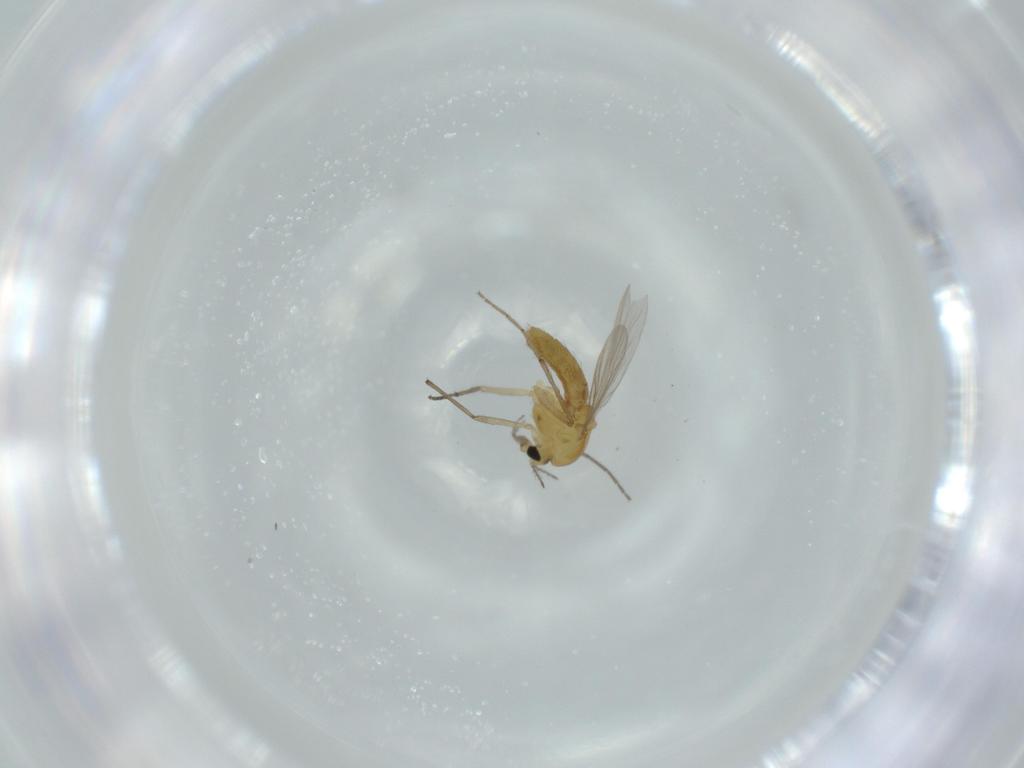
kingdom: Animalia
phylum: Arthropoda
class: Insecta
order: Diptera
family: Chironomidae
